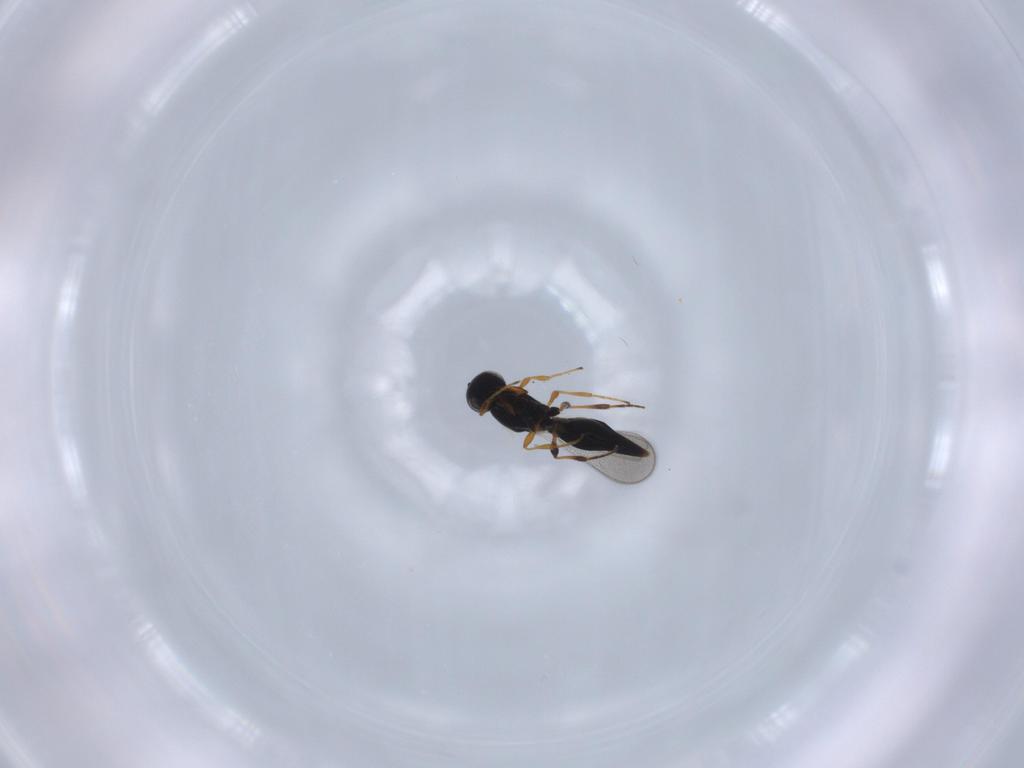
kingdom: Animalia
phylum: Arthropoda
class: Insecta
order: Hymenoptera
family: Platygastridae
